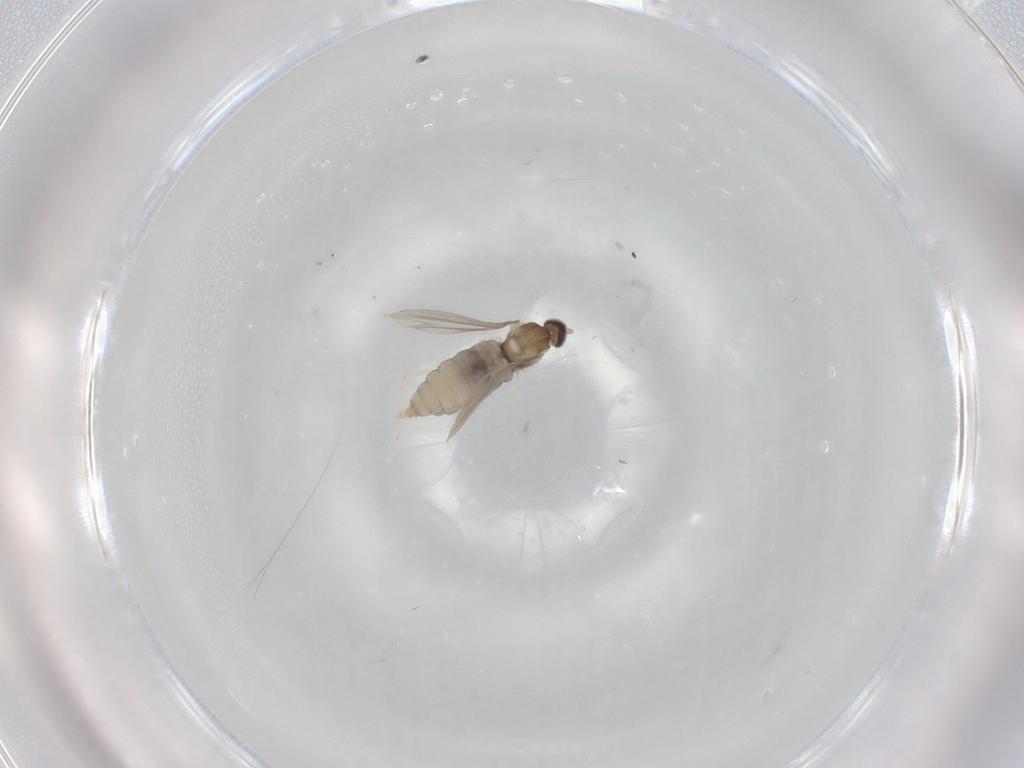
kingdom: Animalia
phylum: Arthropoda
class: Insecta
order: Diptera
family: Cecidomyiidae
